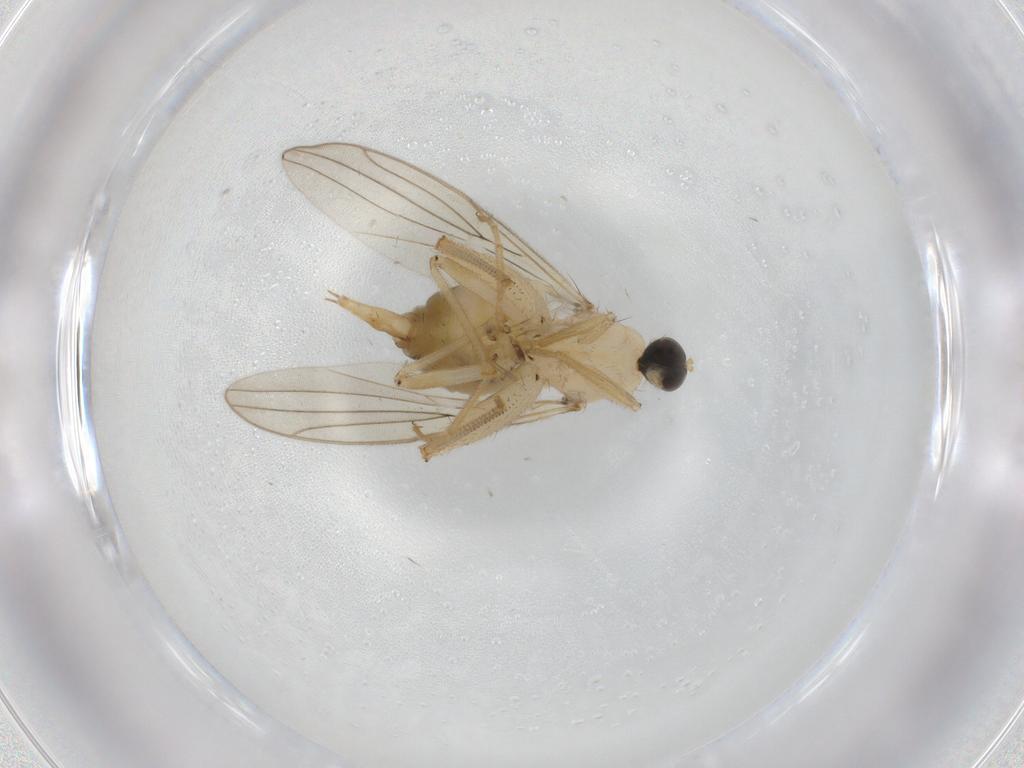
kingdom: Animalia
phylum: Arthropoda
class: Insecta
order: Diptera
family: Hybotidae
